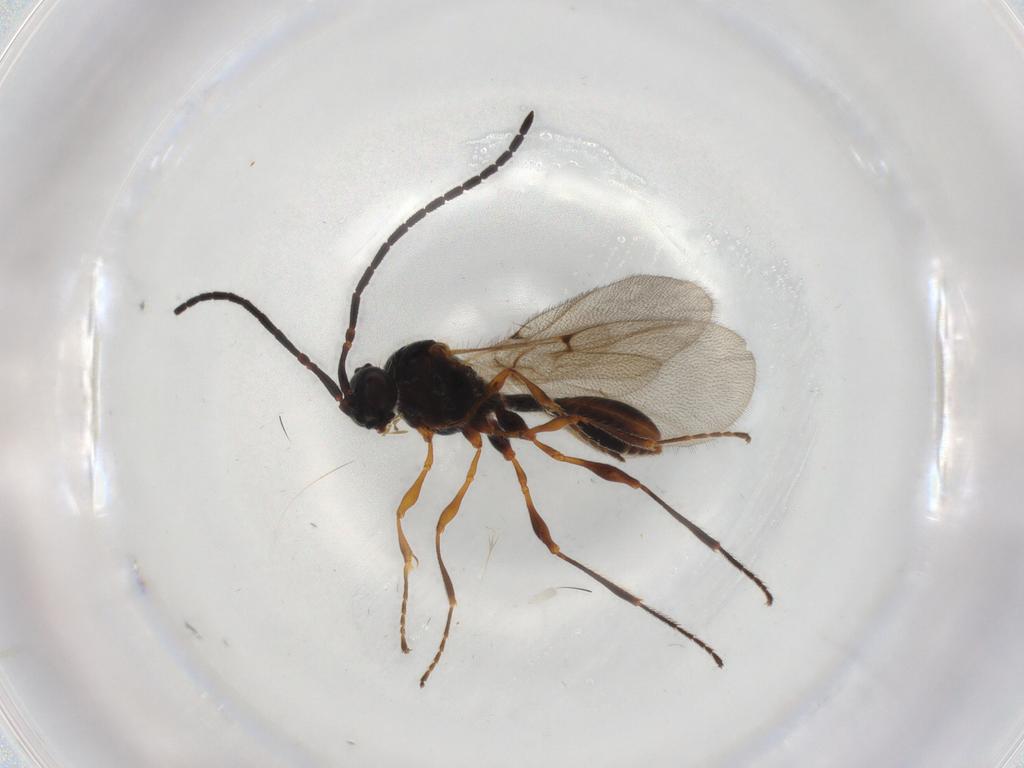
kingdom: Animalia
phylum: Arthropoda
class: Insecta
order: Hymenoptera
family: Diapriidae
